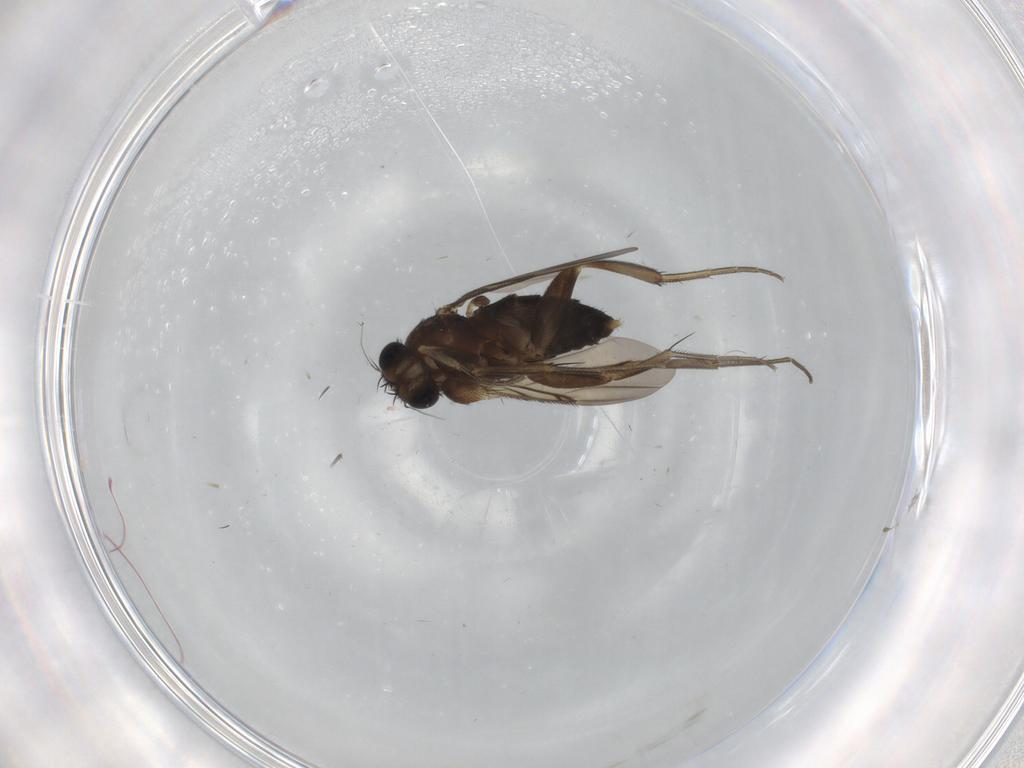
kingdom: Animalia
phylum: Arthropoda
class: Insecta
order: Diptera
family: Phoridae
